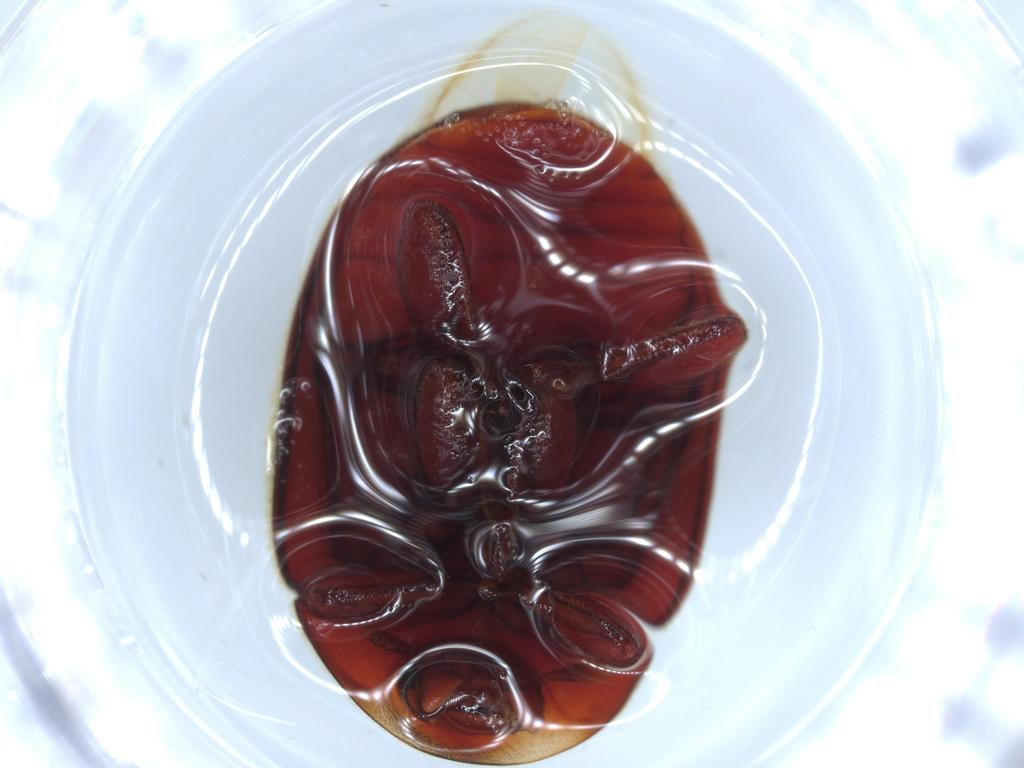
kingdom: Animalia
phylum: Arthropoda
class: Insecta
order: Coleoptera
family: Coccinellidae
